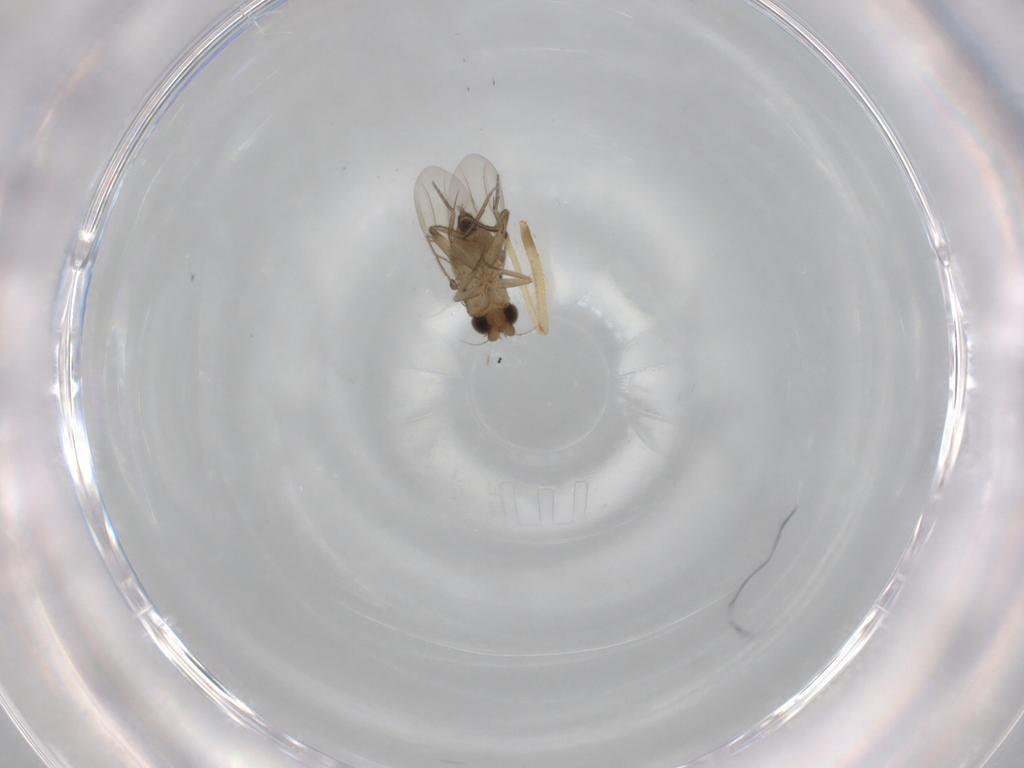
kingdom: Animalia
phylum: Arthropoda
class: Insecta
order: Diptera
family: Phoridae
